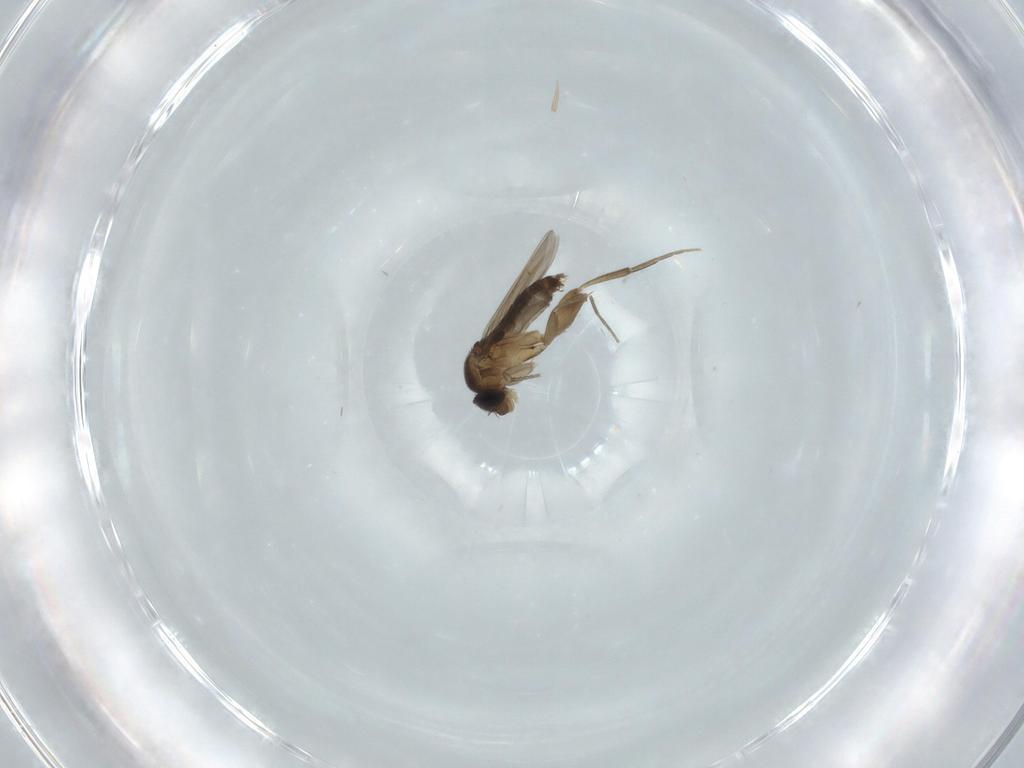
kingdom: Animalia
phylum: Arthropoda
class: Insecta
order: Diptera
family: Phoridae
